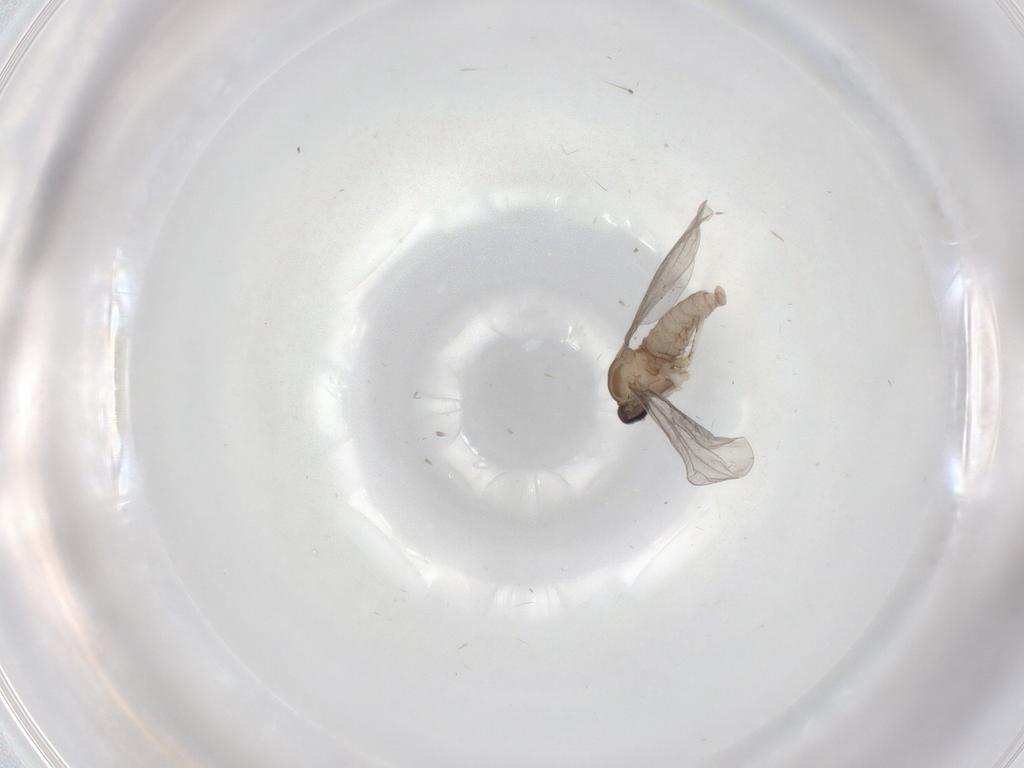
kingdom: Animalia
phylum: Arthropoda
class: Insecta
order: Diptera
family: Cecidomyiidae
